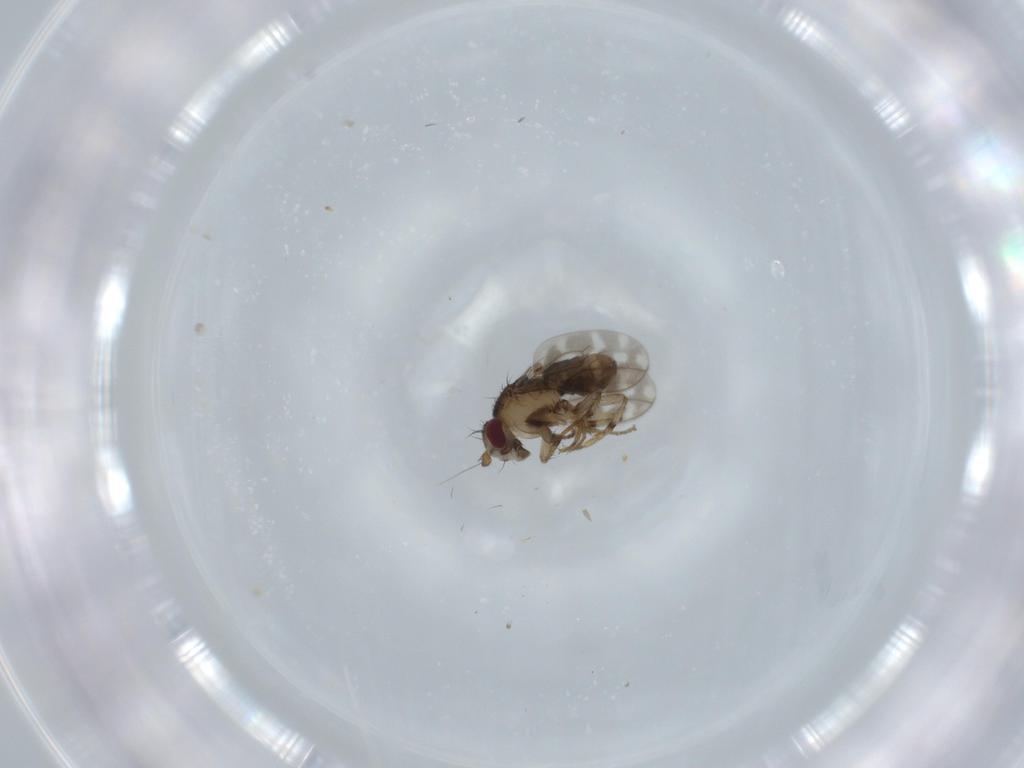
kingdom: Animalia
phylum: Arthropoda
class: Insecta
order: Diptera
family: Sphaeroceridae
